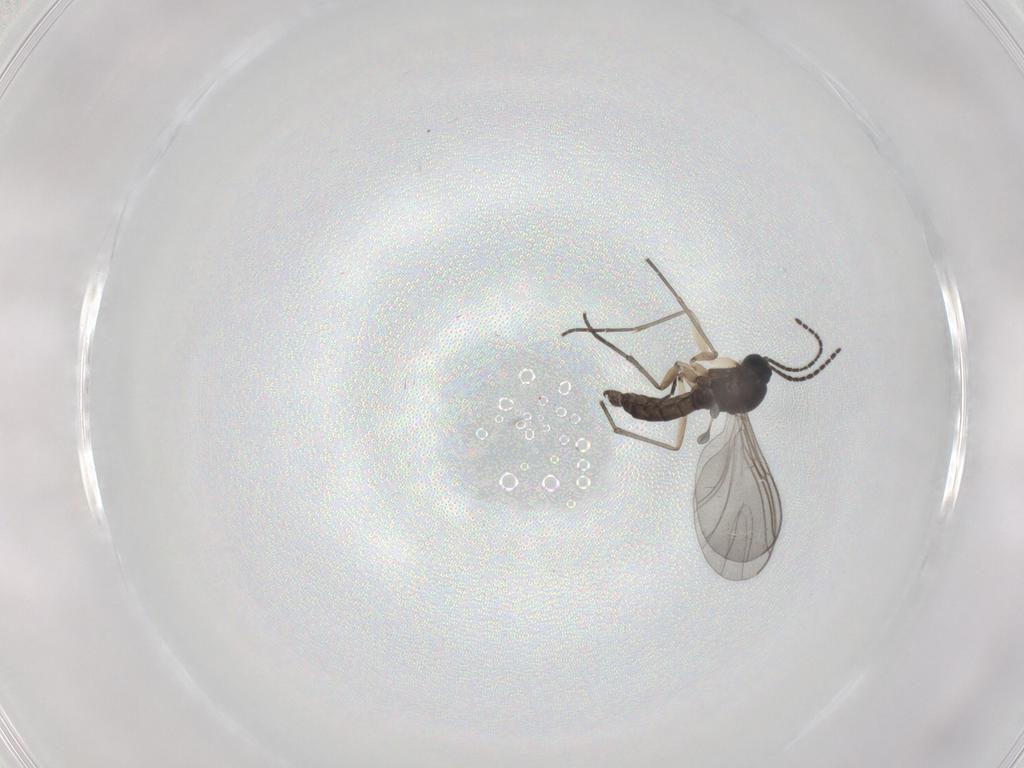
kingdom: Animalia
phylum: Arthropoda
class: Insecta
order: Diptera
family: Sciaridae
